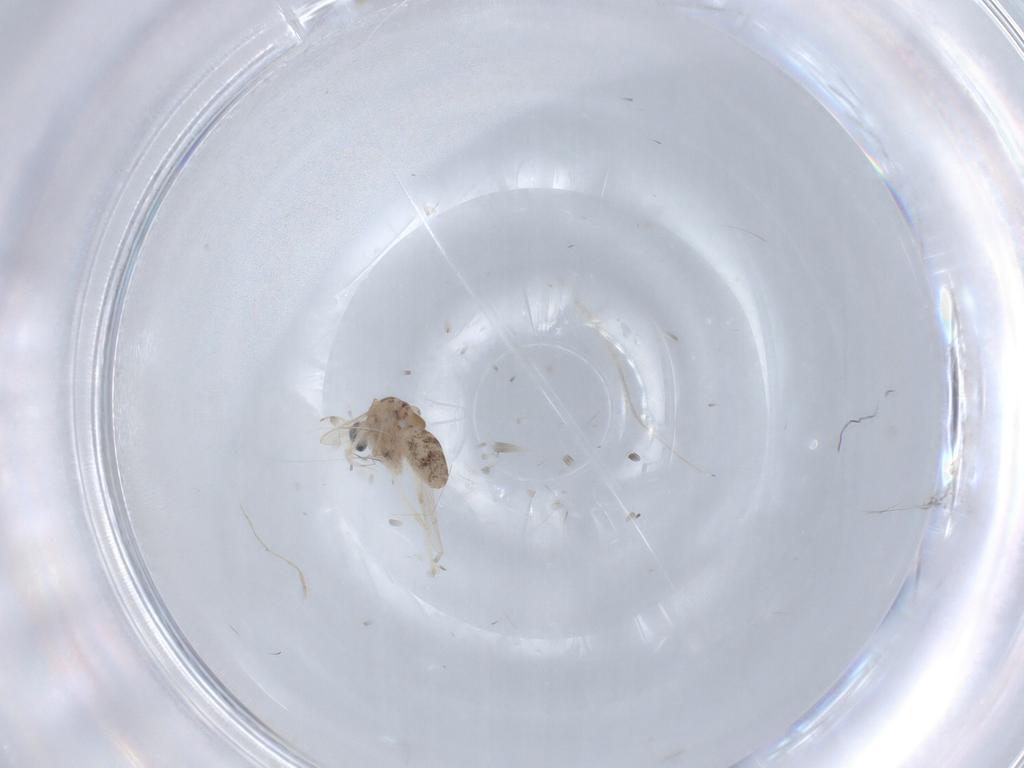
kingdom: Animalia
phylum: Arthropoda
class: Insecta
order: Diptera
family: Chironomidae
